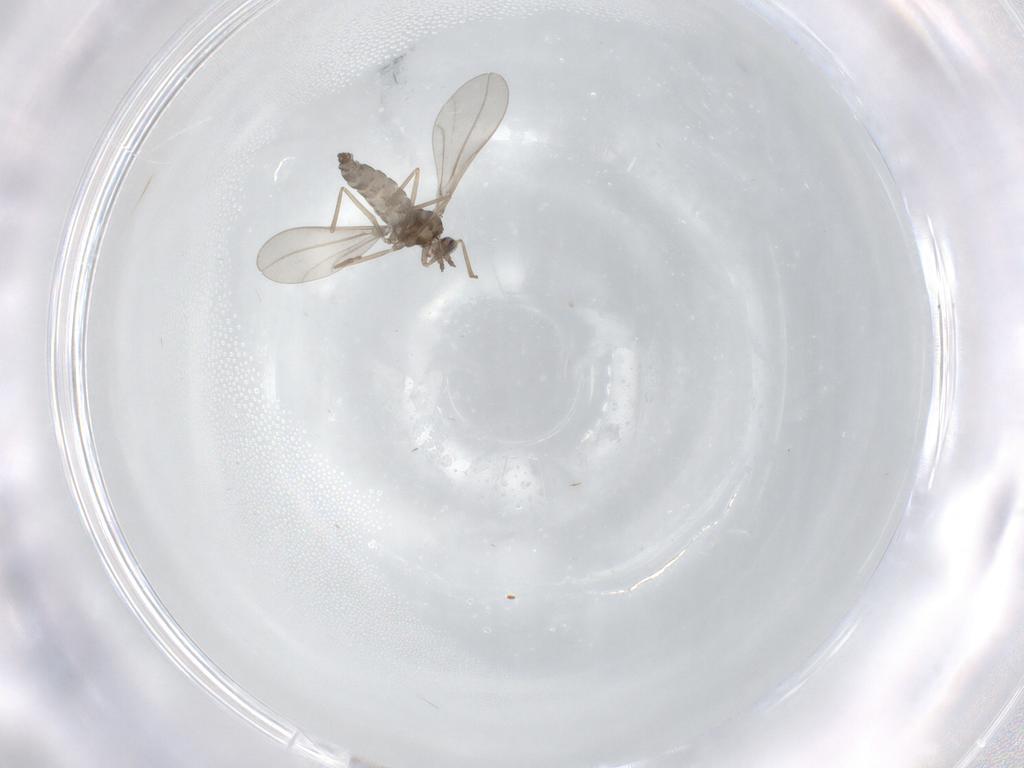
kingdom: Animalia
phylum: Arthropoda
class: Insecta
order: Diptera
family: Cecidomyiidae
